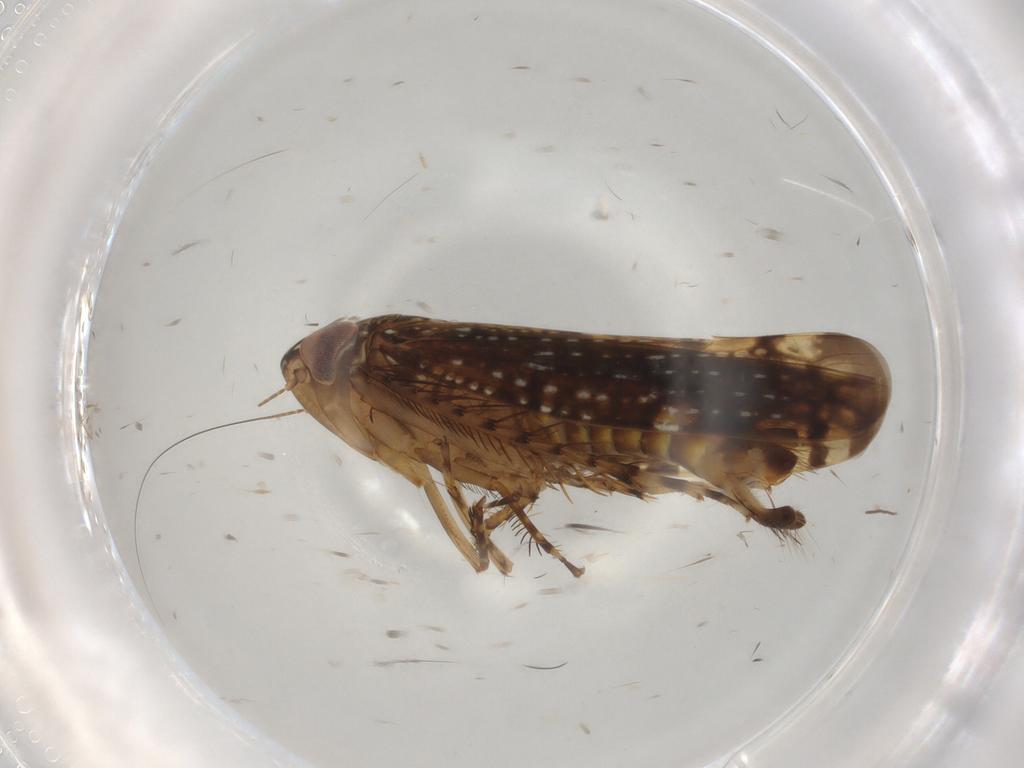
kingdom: Animalia
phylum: Arthropoda
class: Insecta
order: Hemiptera
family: Cicadellidae
